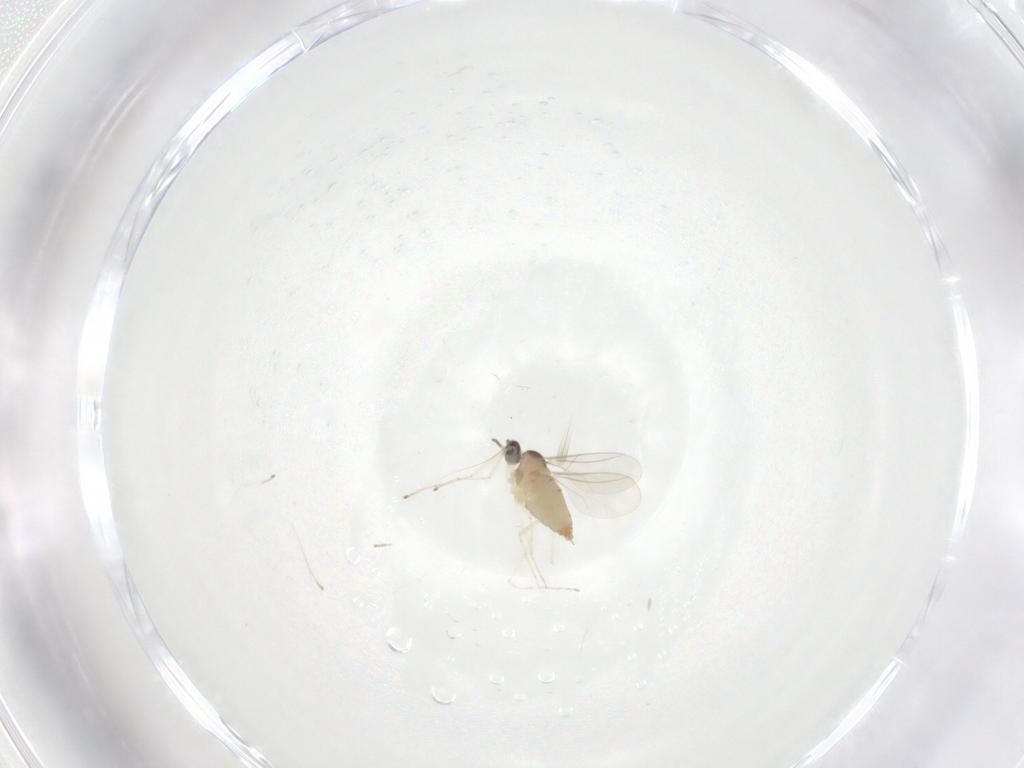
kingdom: Animalia
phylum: Arthropoda
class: Insecta
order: Diptera
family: Cecidomyiidae
